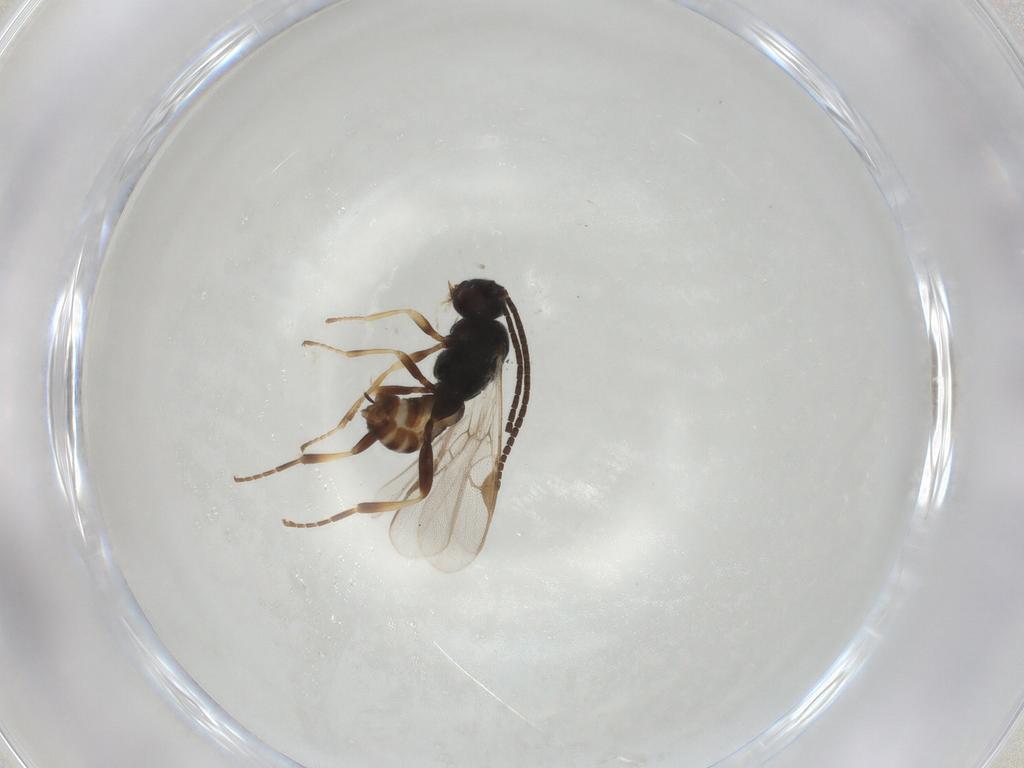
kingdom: Animalia
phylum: Arthropoda
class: Insecta
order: Hymenoptera
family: Braconidae
